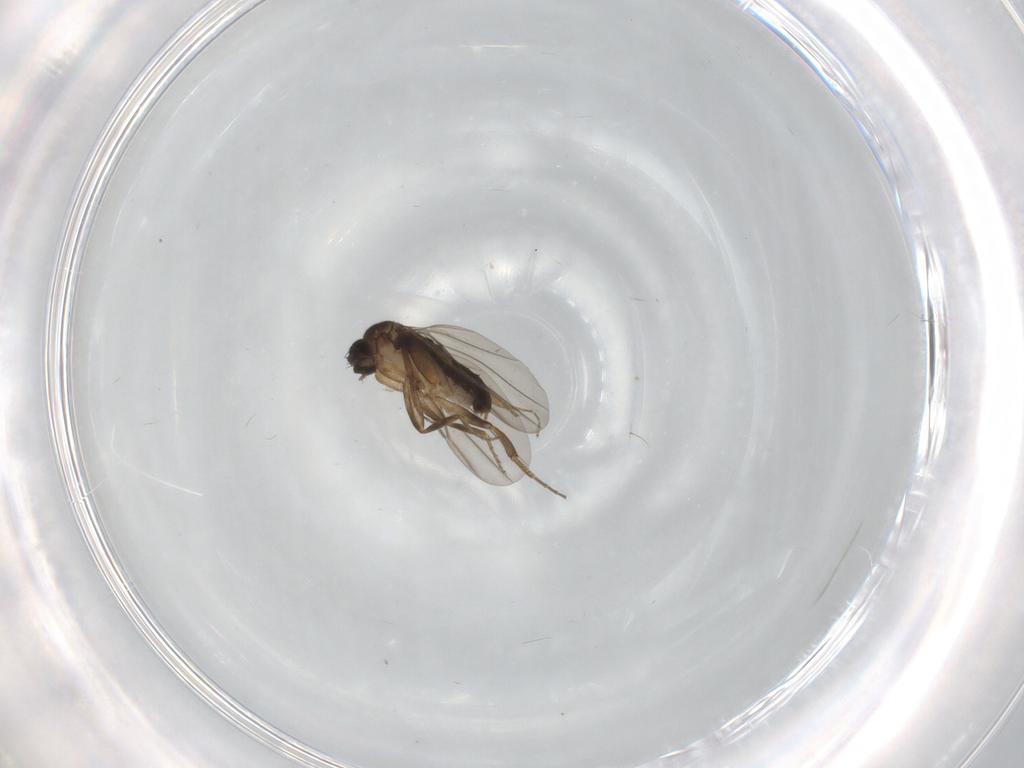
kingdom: Animalia
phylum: Arthropoda
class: Insecta
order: Diptera
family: Phoridae
